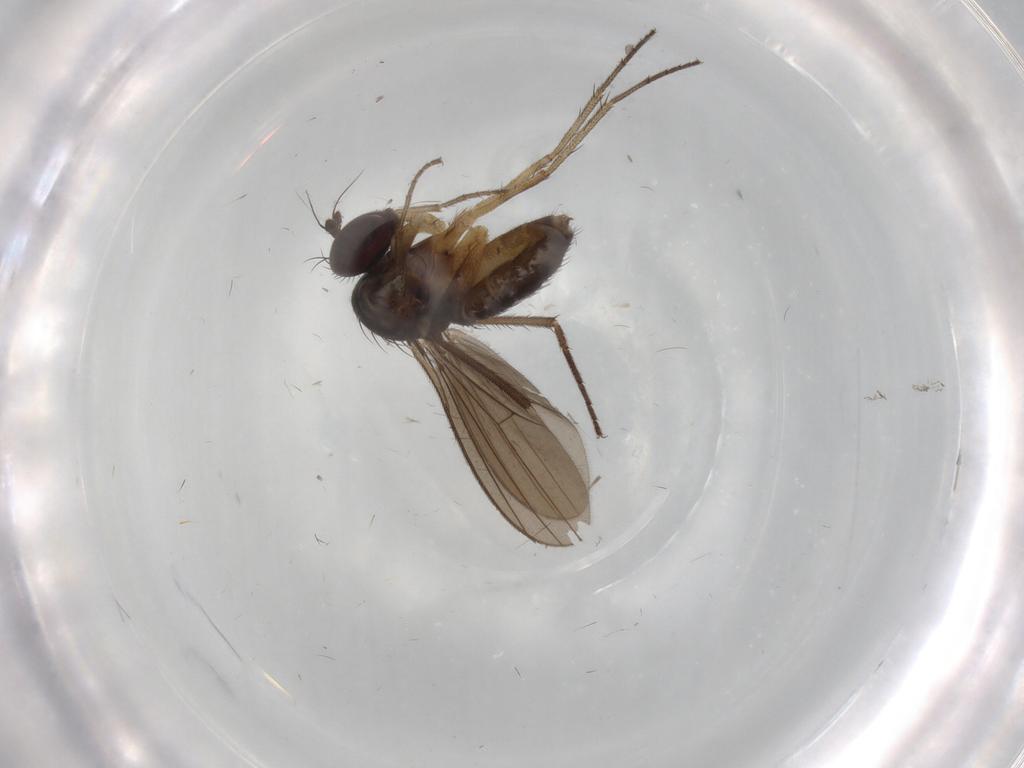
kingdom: Animalia
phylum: Arthropoda
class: Insecta
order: Diptera
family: Dolichopodidae
